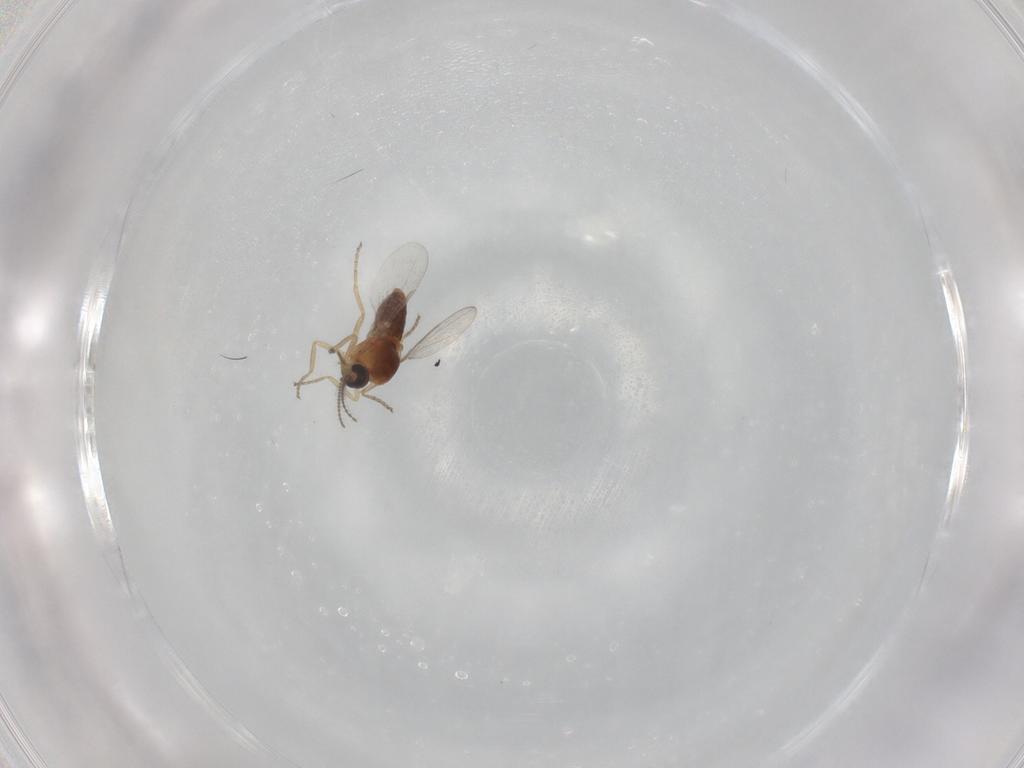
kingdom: Animalia
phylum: Arthropoda
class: Insecta
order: Diptera
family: Ceratopogonidae
